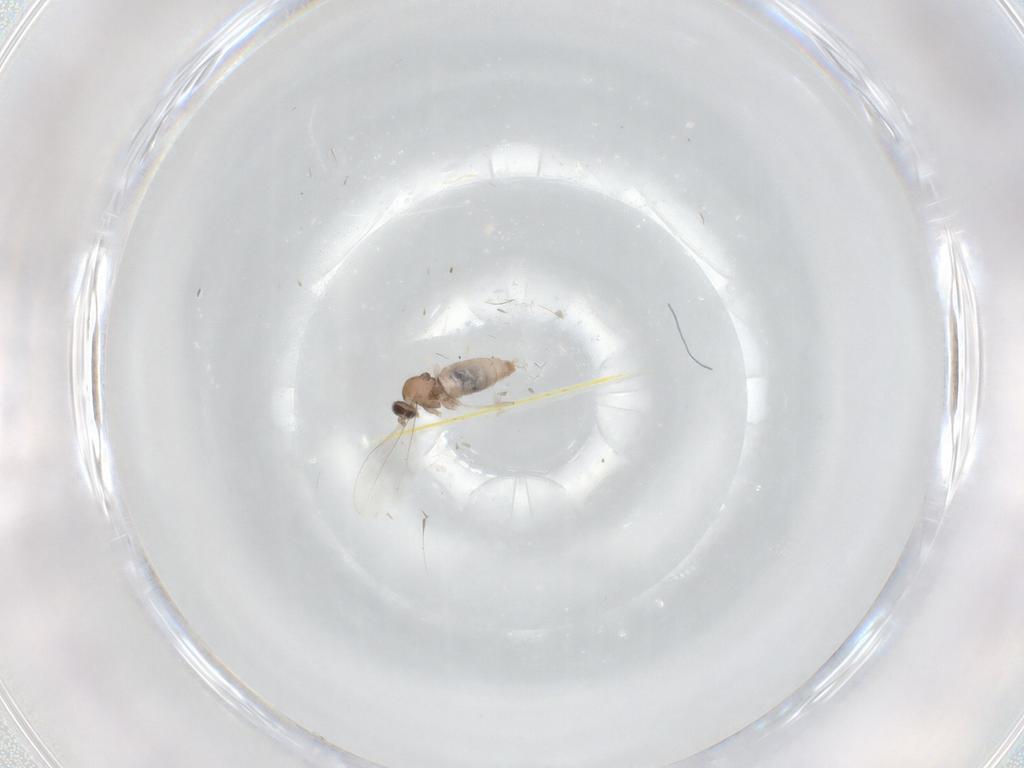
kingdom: Animalia
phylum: Arthropoda
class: Insecta
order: Diptera
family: Cecidomyiidae
